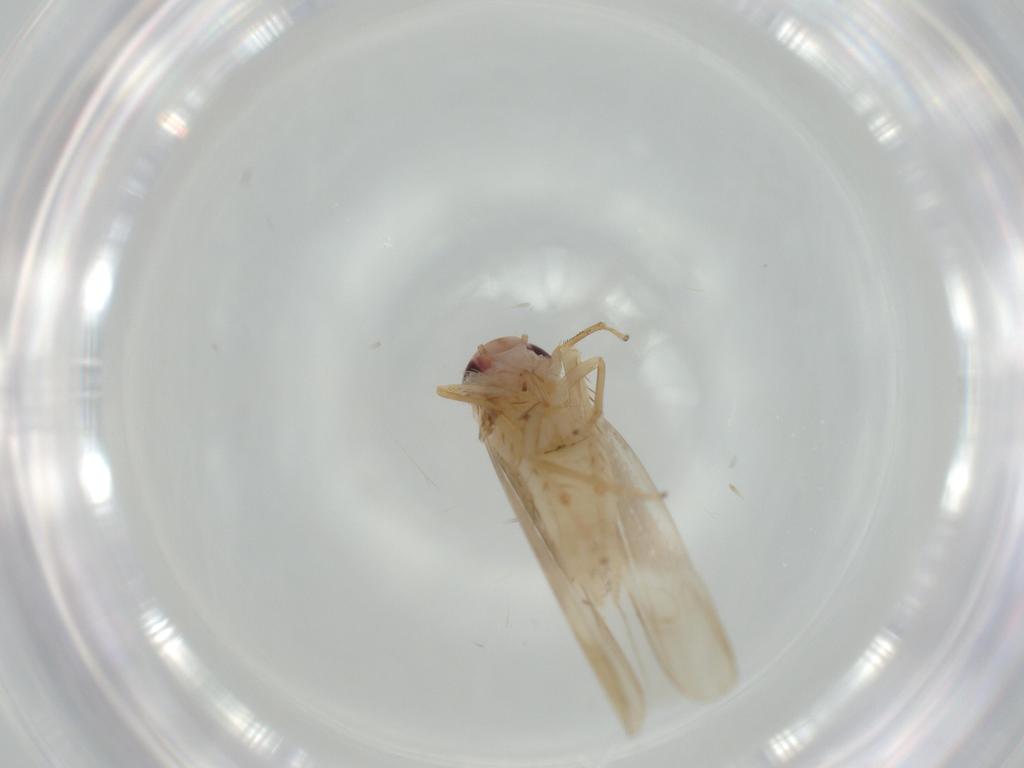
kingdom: Animalia
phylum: Arthropoda
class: Insecta
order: Hemiptera
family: Cicadellidae
